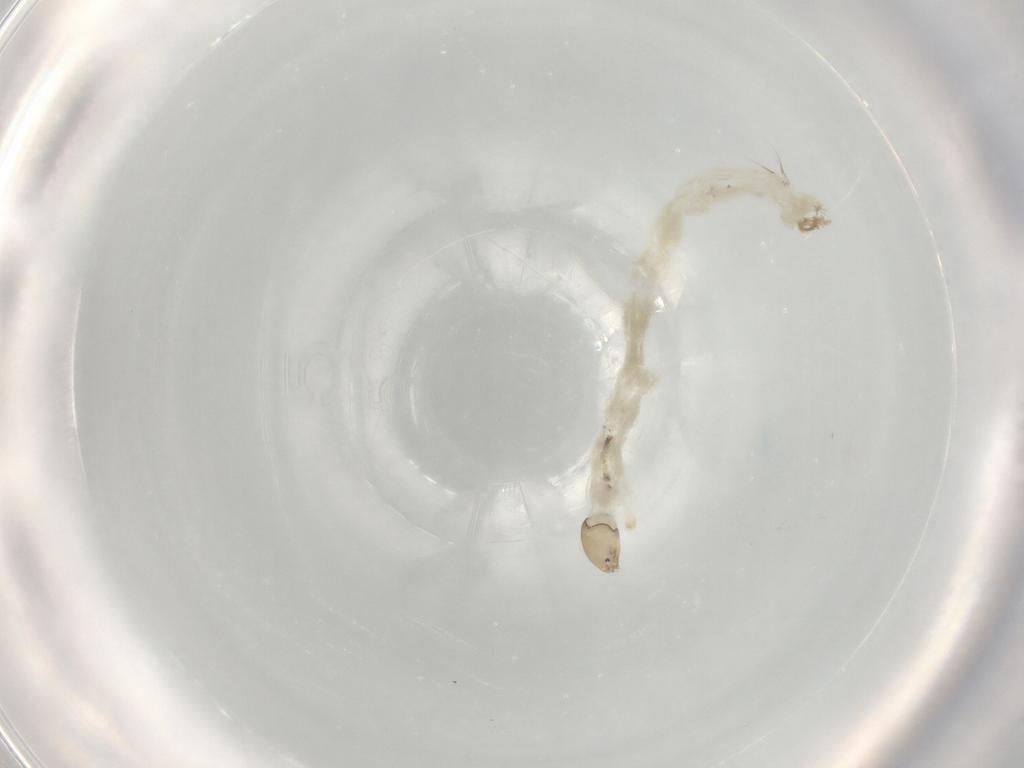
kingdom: Animalia
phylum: Arthropoda
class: Insecta
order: Diptera
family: Chironomidae
